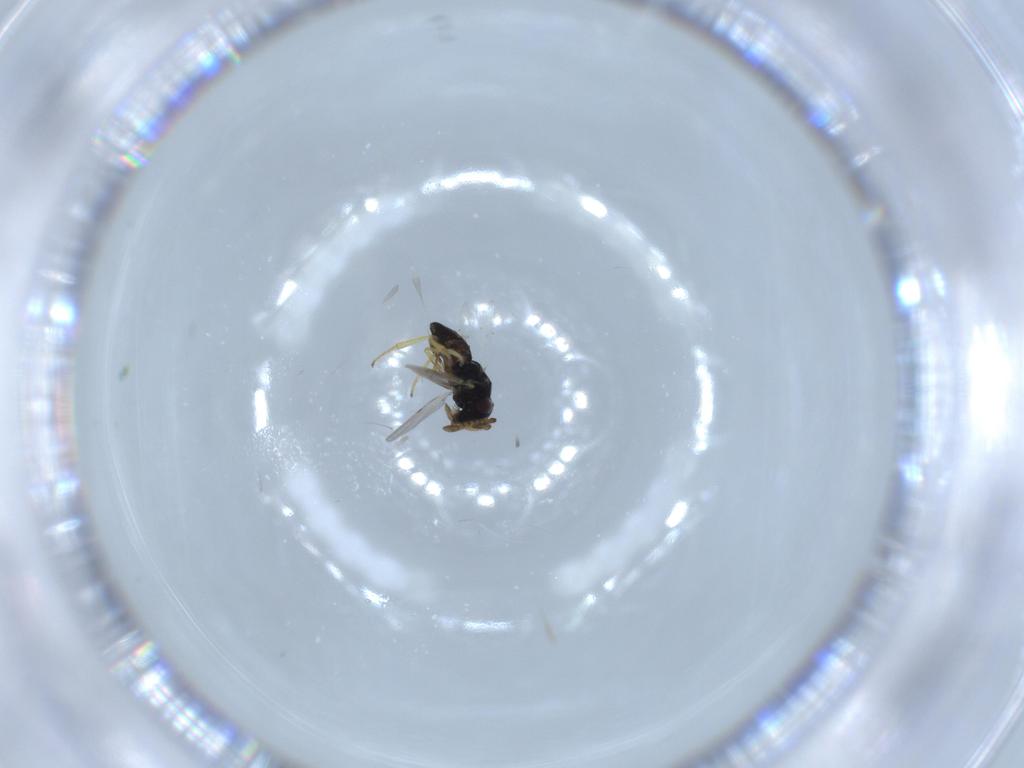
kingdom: Animalia
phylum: Arthropoda
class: Insecta
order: Hymenoptera
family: Encyrtidae
